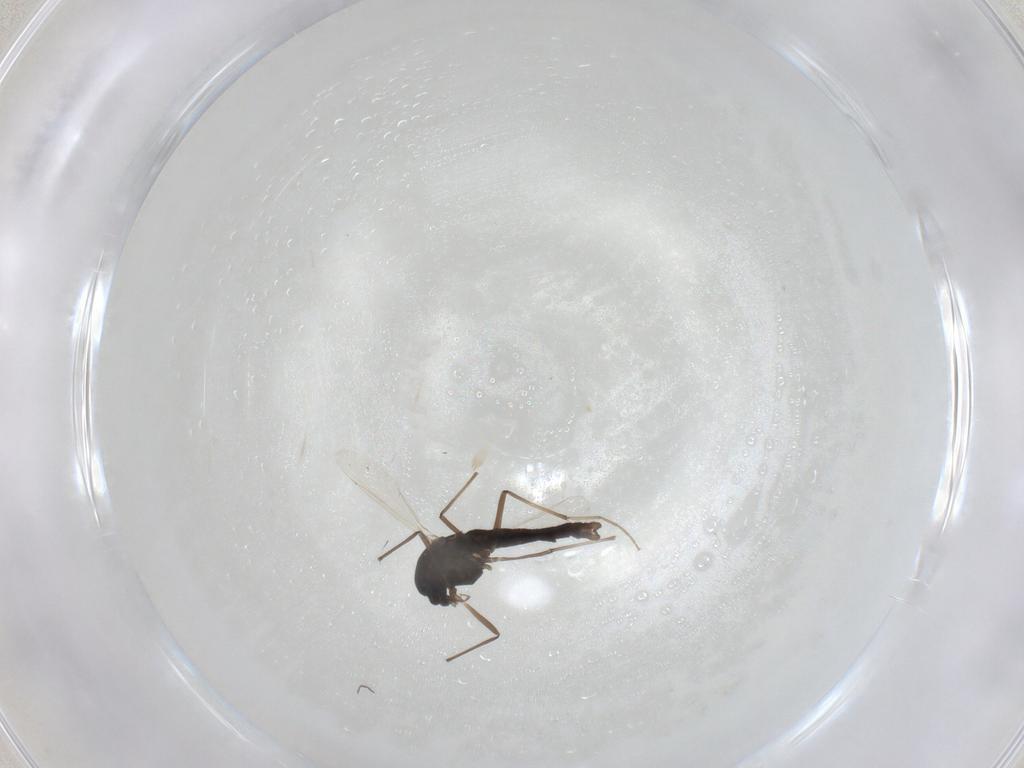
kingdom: Animalia
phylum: Arthropoda
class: Insecta
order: Diptera
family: Chironomidae
